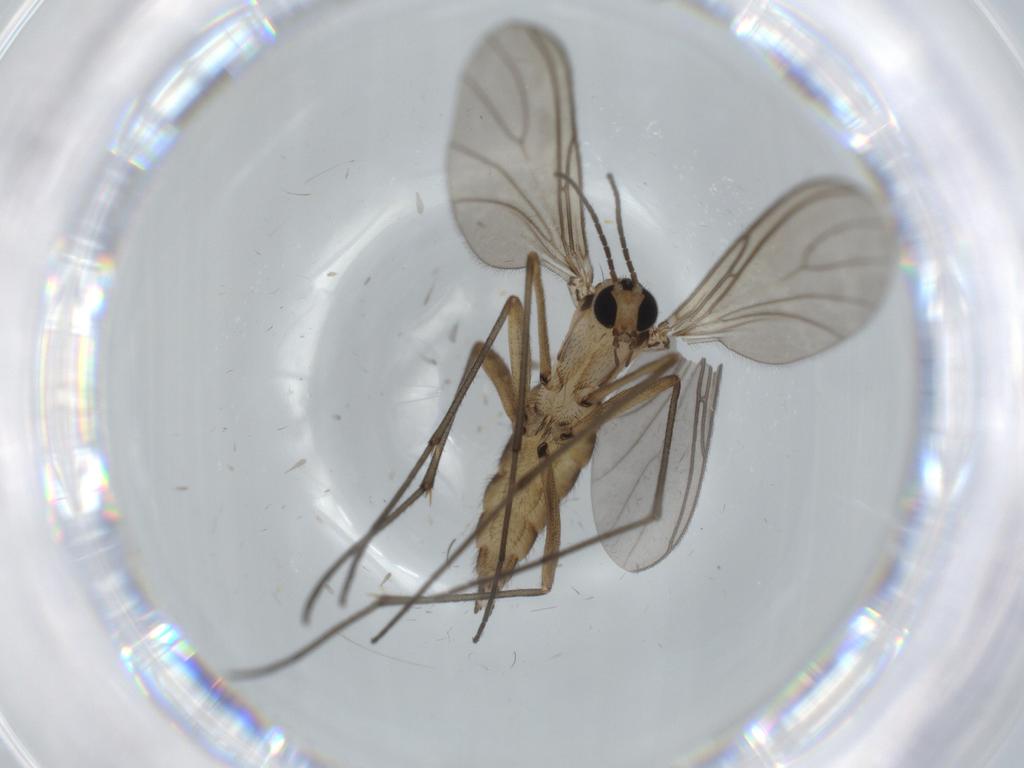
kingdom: Animalia
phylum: Arthropoda
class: Insecta
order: Diptera
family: Sciaridae
